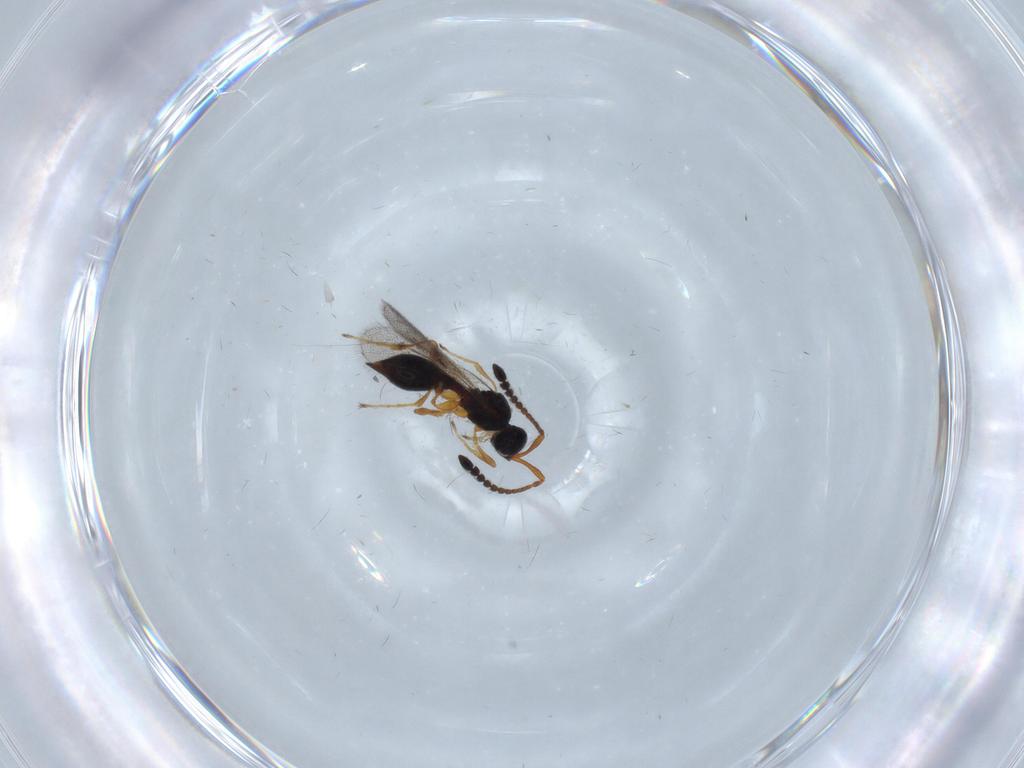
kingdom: Animalia
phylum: Arthropoda
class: Insecta
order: Hymenoptera
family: Diapriidae
